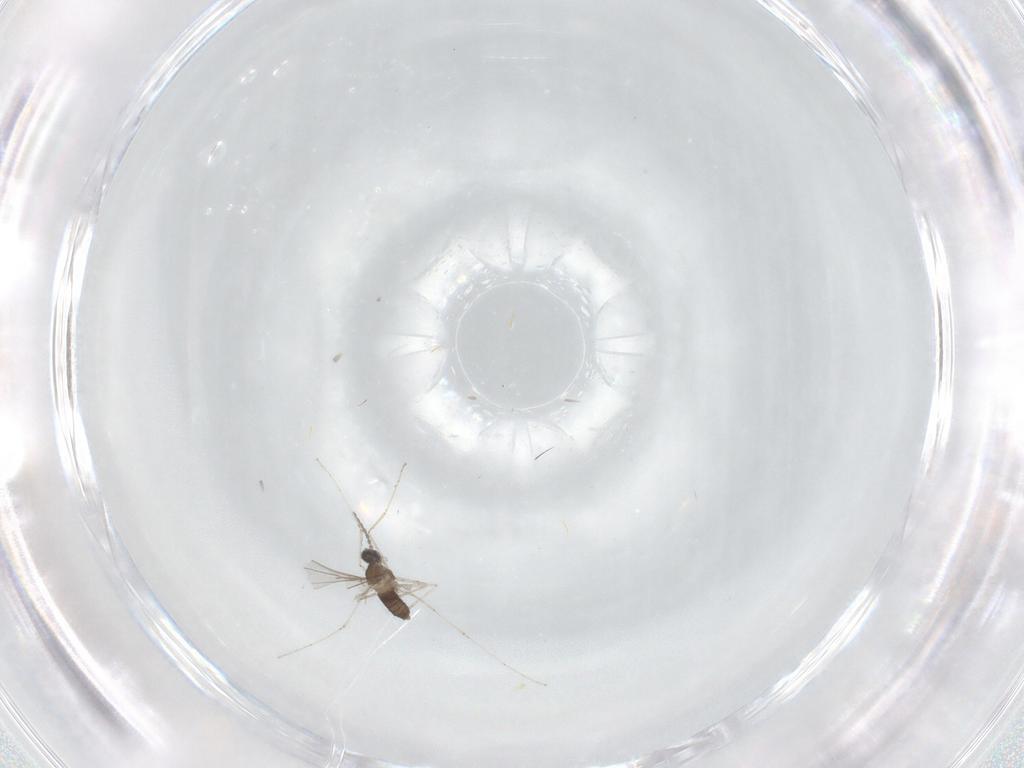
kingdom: Animalia
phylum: Arthropoda
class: Insecta
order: Diptera
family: Cecidomyiidae
